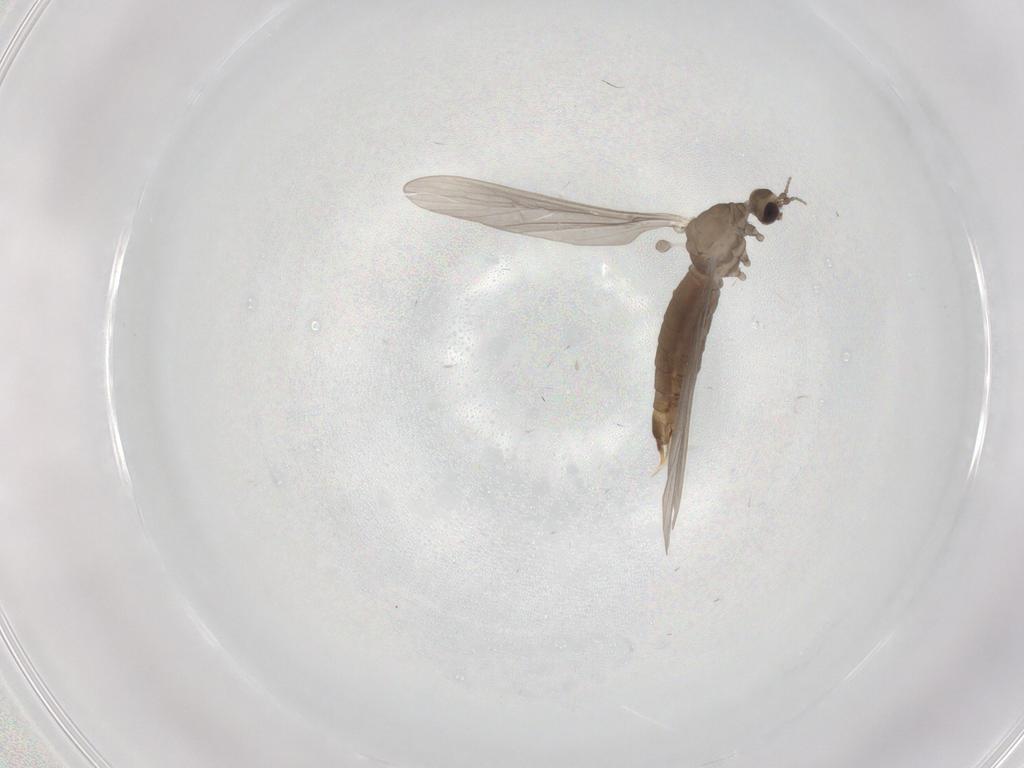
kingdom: Animalia
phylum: Arthropoda
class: Insecta
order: Diptera
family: Limoniidae
